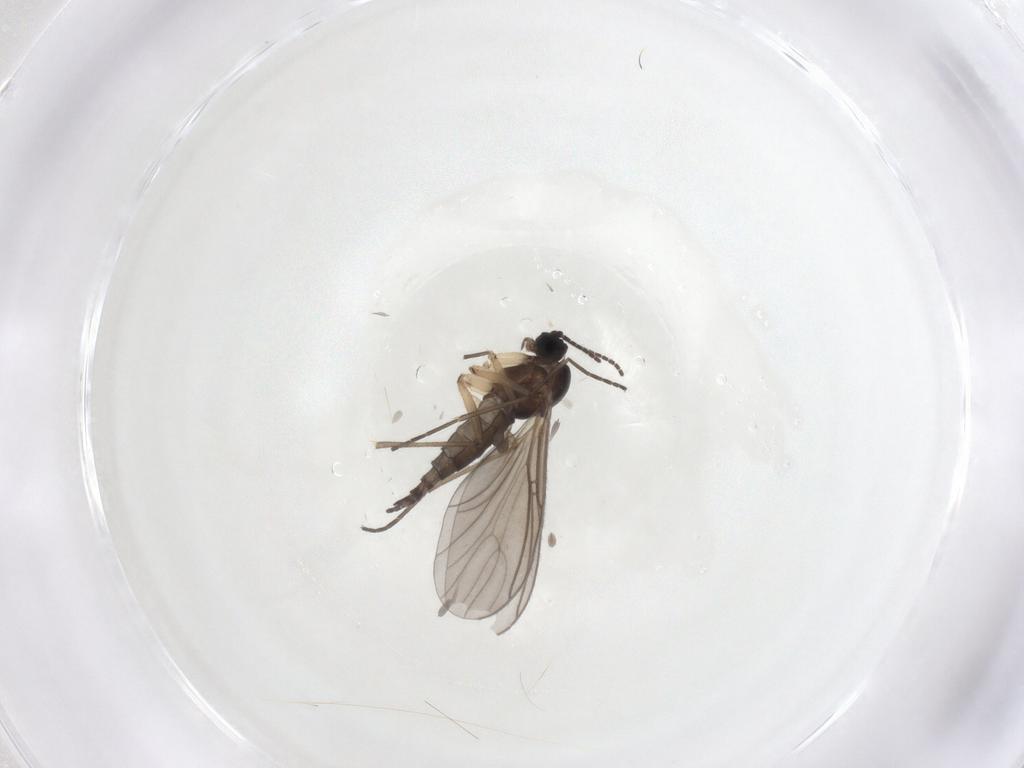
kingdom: Animalia
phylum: Arthropoda
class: Insecta
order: Diptera
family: Sciaridae
